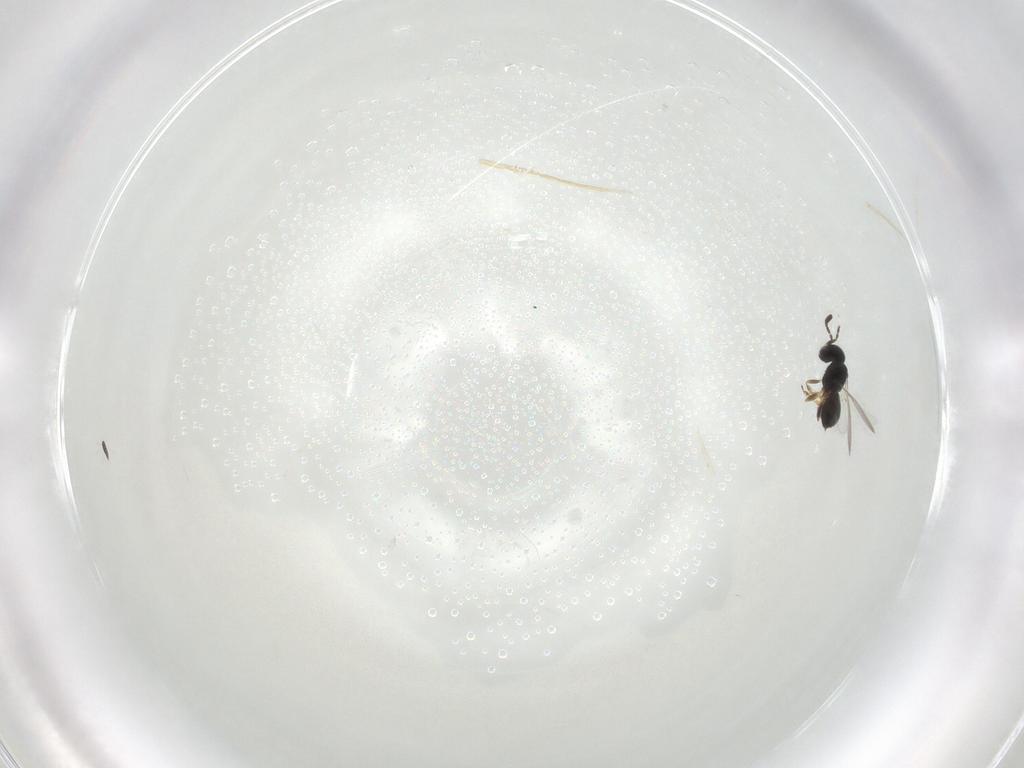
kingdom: Animalia
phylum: Arthropoda
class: Insecta
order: Hymenoptera
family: Scelionidae
